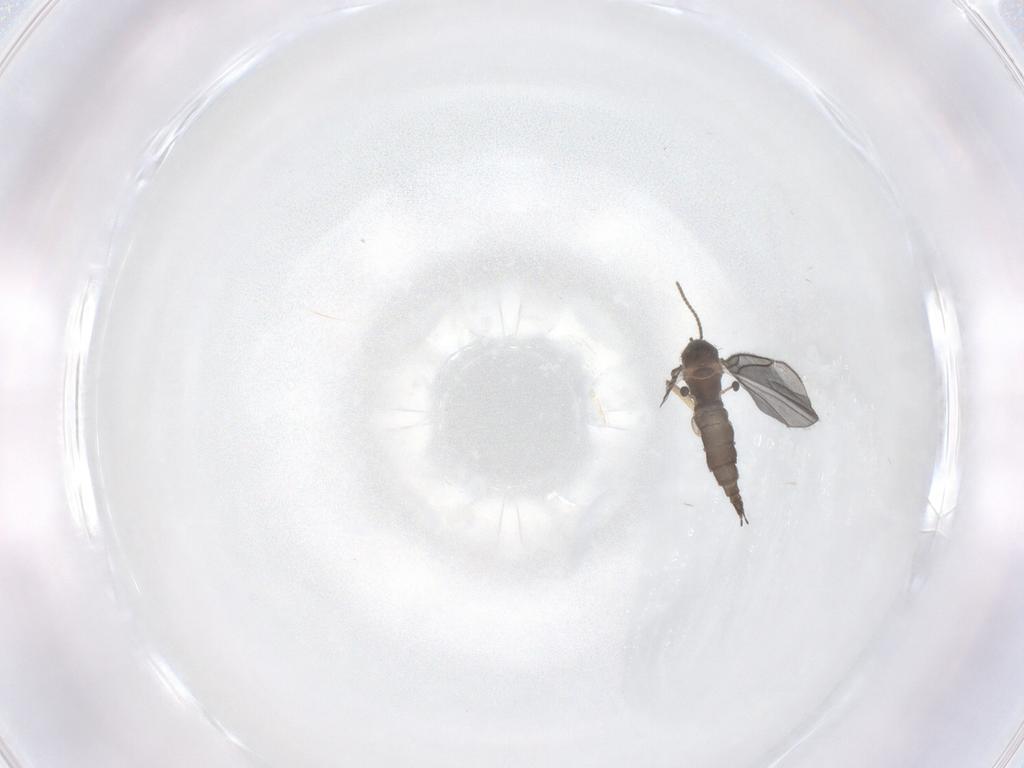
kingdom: Animalia
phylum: Arthropoda
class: Insecta
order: Diptera
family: Sciaridae
